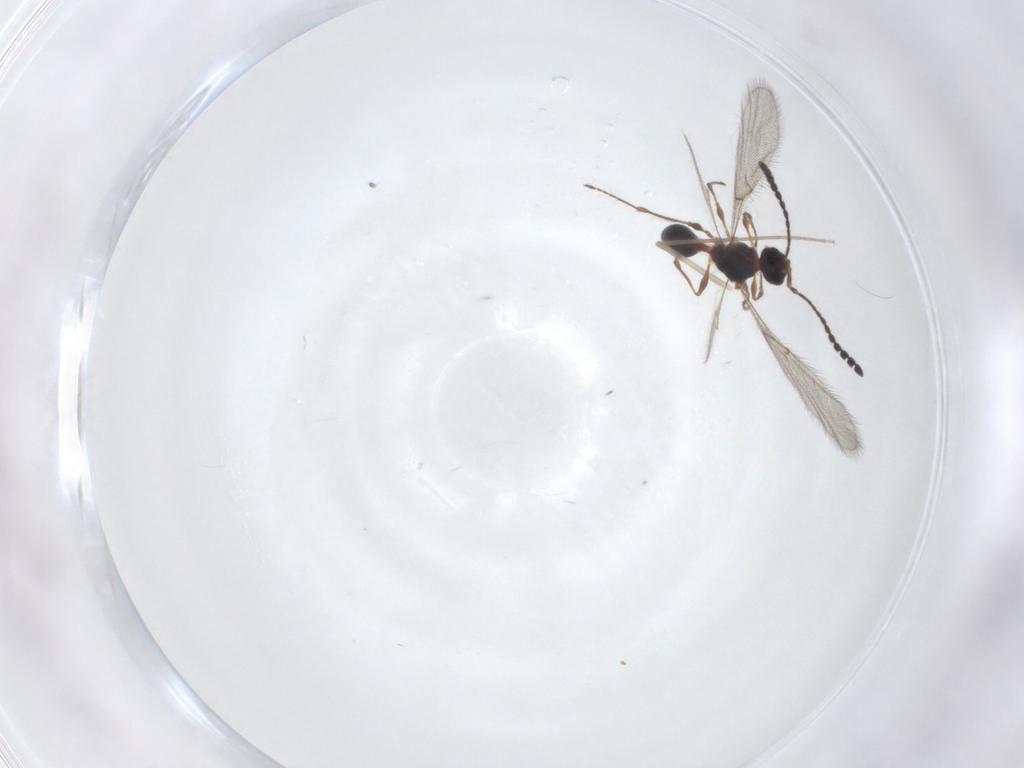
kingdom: Animalia
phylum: Arthropoda
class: Insecta
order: Hymenoptera
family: Diapriidae
